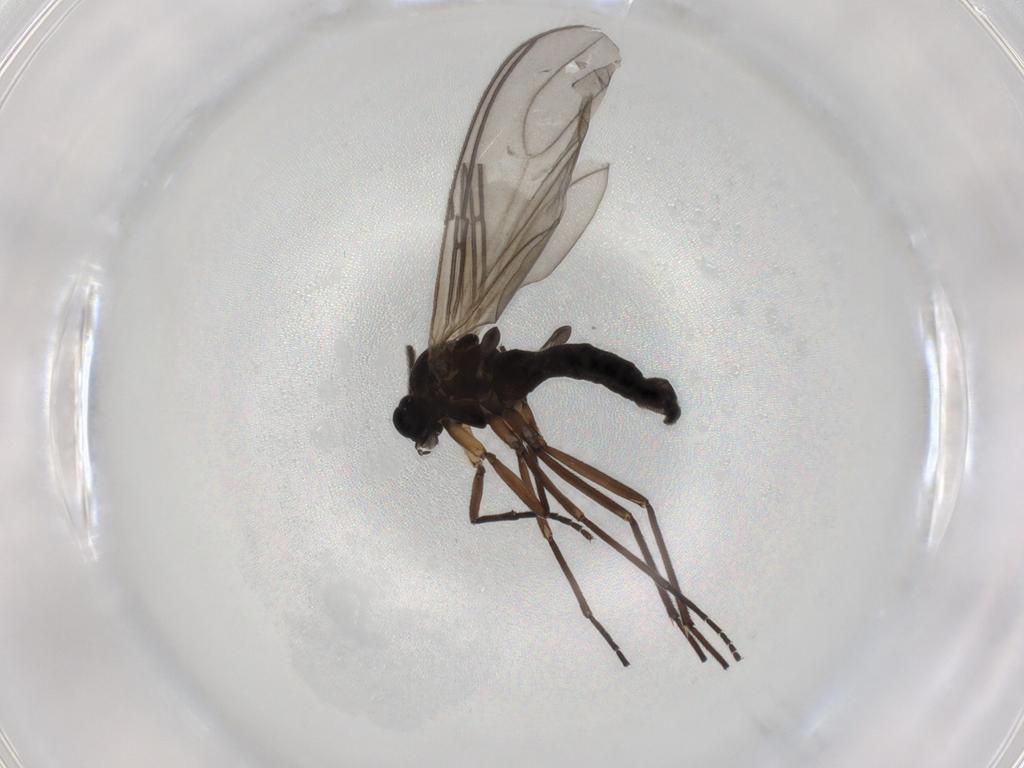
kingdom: Animalia
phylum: Arthropoda
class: Insecta
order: Diptera
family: Sciaridae
